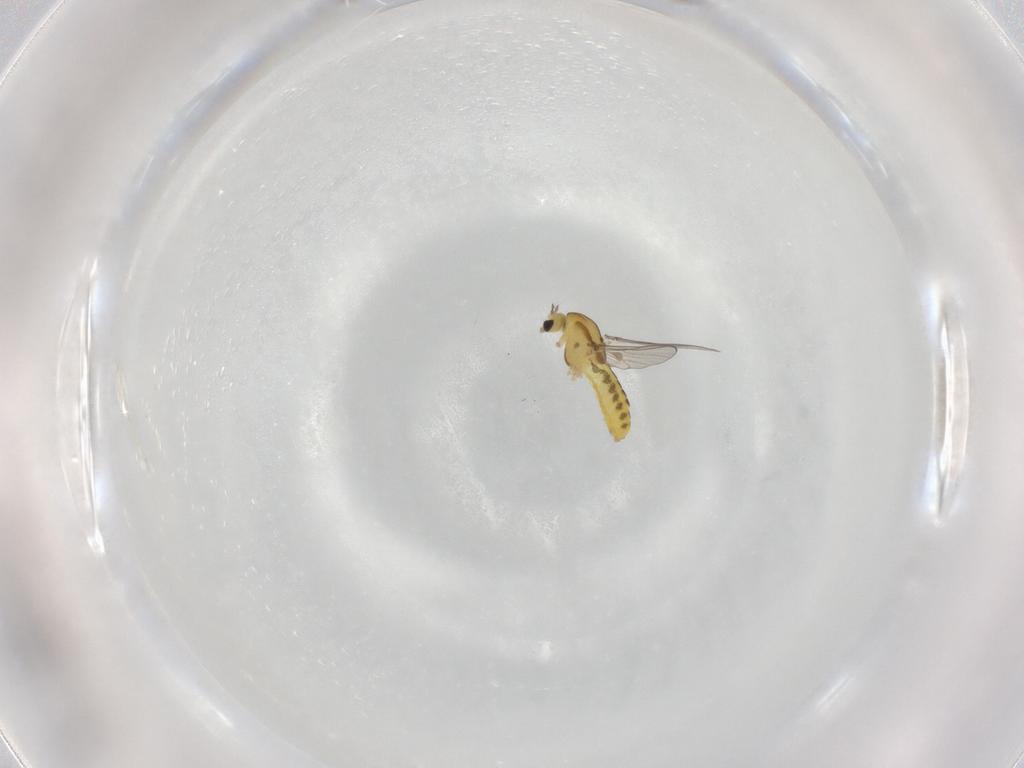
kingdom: Animalia
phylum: Arthropoda
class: Insecta
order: Diptera
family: Chironomidae
